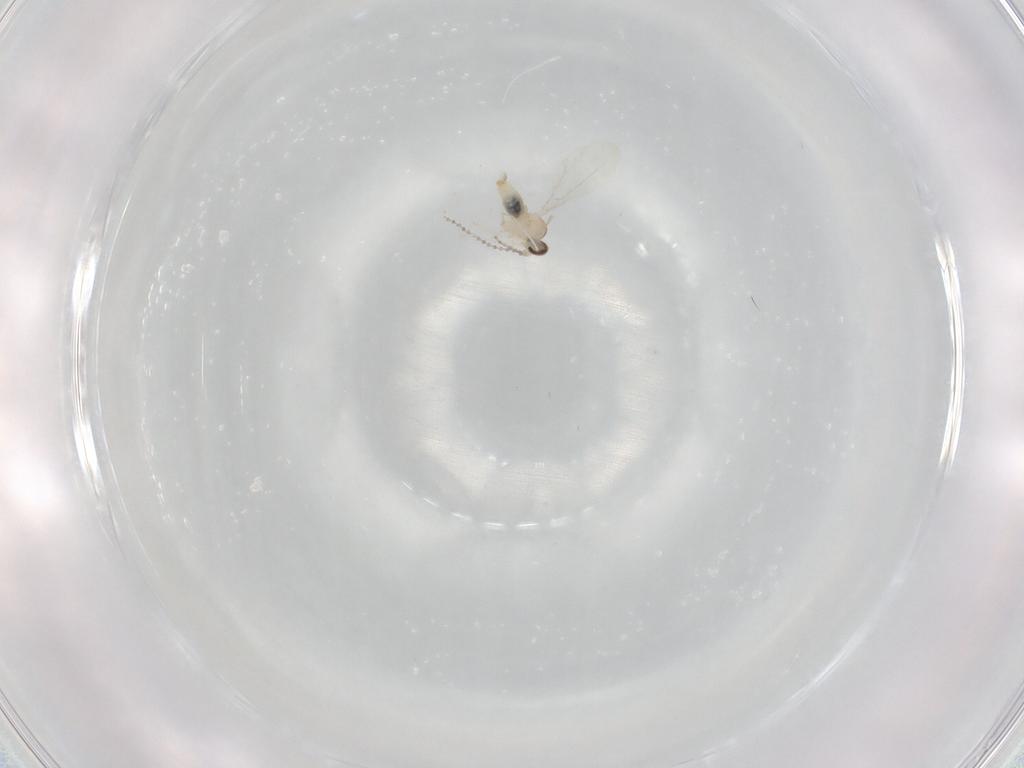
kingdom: Animalia
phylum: Arthropoda
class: Insecta
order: Diptera
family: Cecidomyiidae
